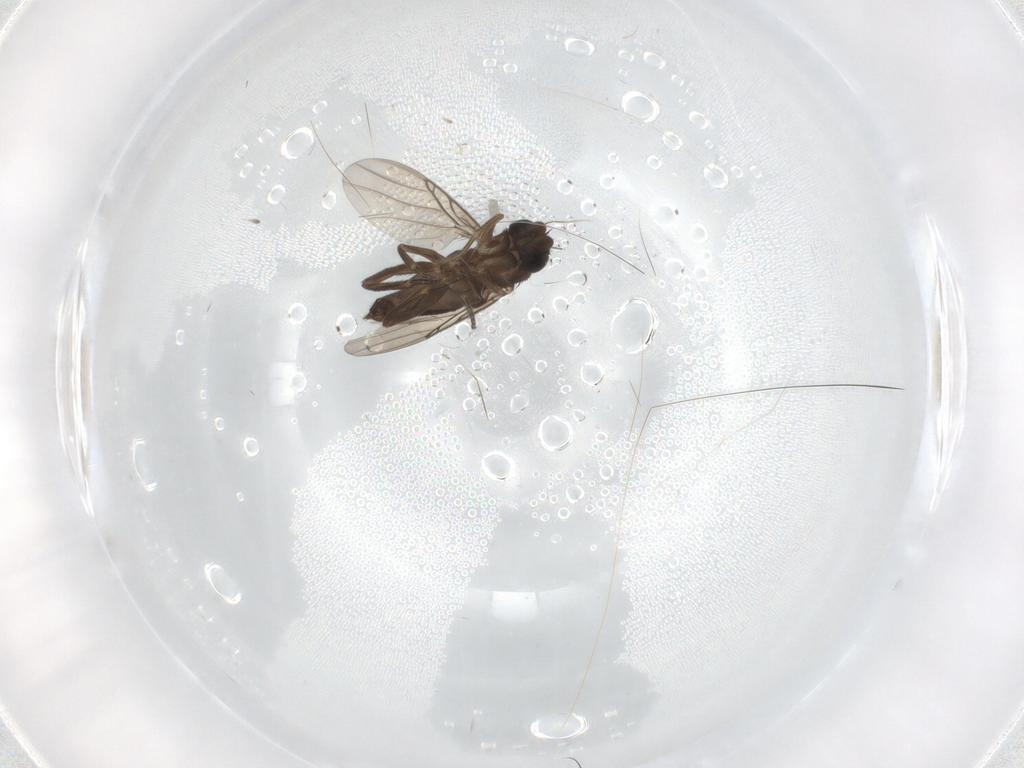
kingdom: Animalia
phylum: Arthropoda
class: Insecta
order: Diptera
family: Phoridae
